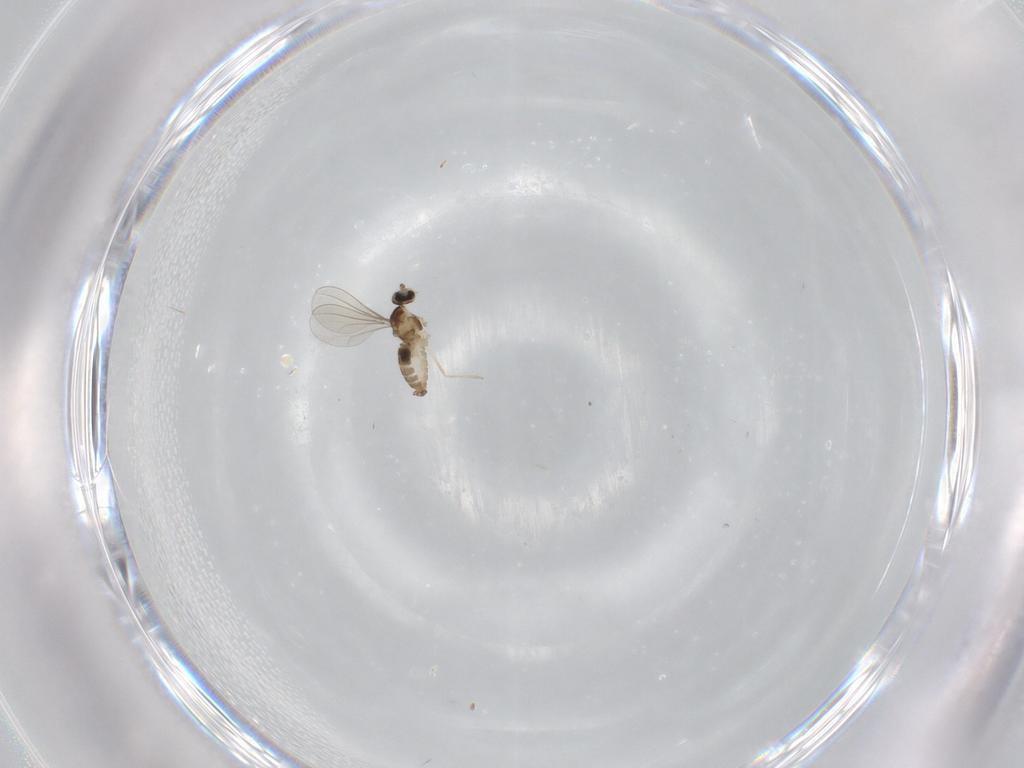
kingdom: Animalia
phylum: Arthropoda
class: Insecta
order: Diptera
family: Cecidomyiidae
